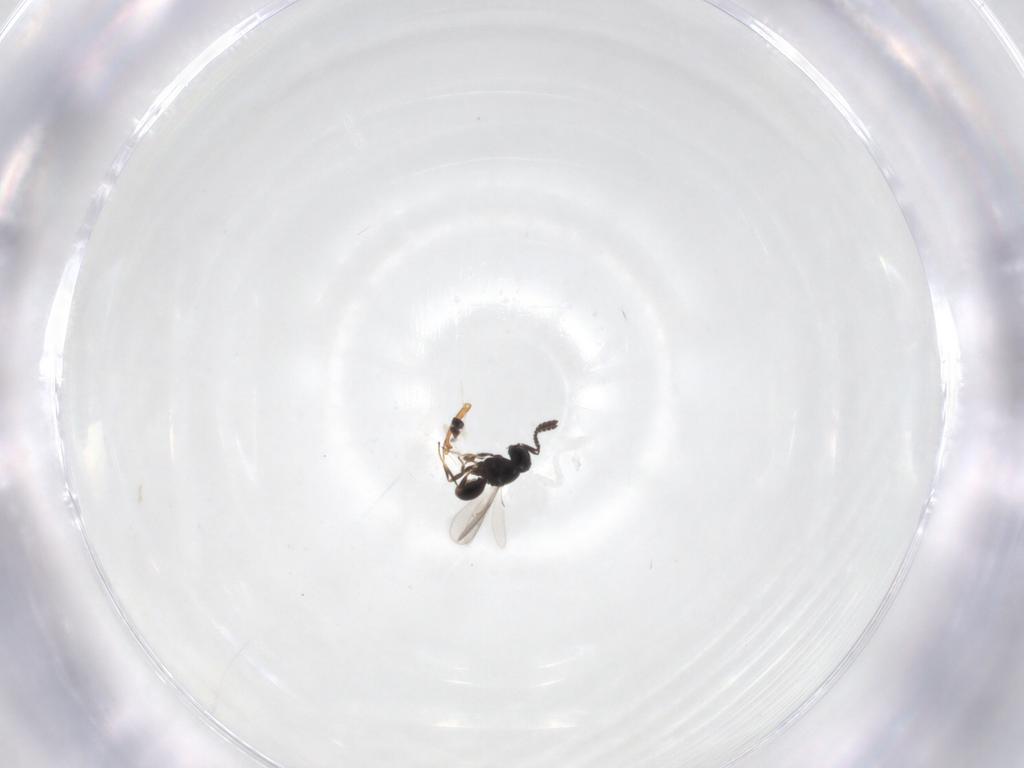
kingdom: Animalia
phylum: Arthropoda
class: Insecta
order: Hymenoptera
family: Scelionidae
